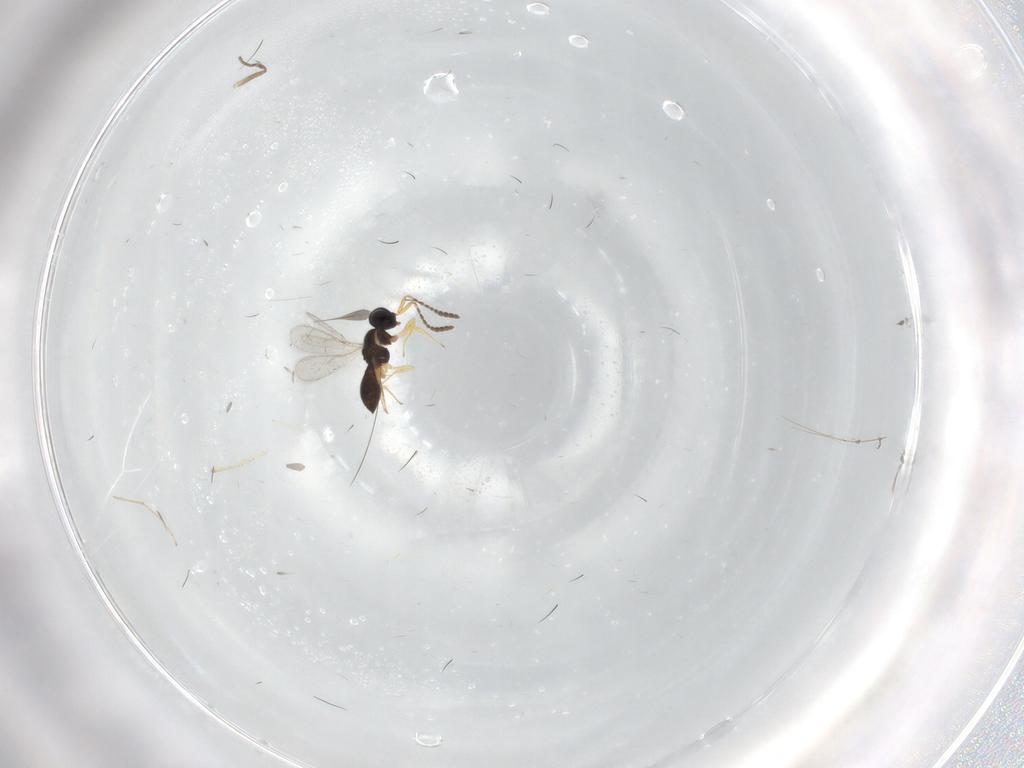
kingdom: Animalia
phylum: Arthropoda
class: Insecta
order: Hymenoptera
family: Scelionidae
